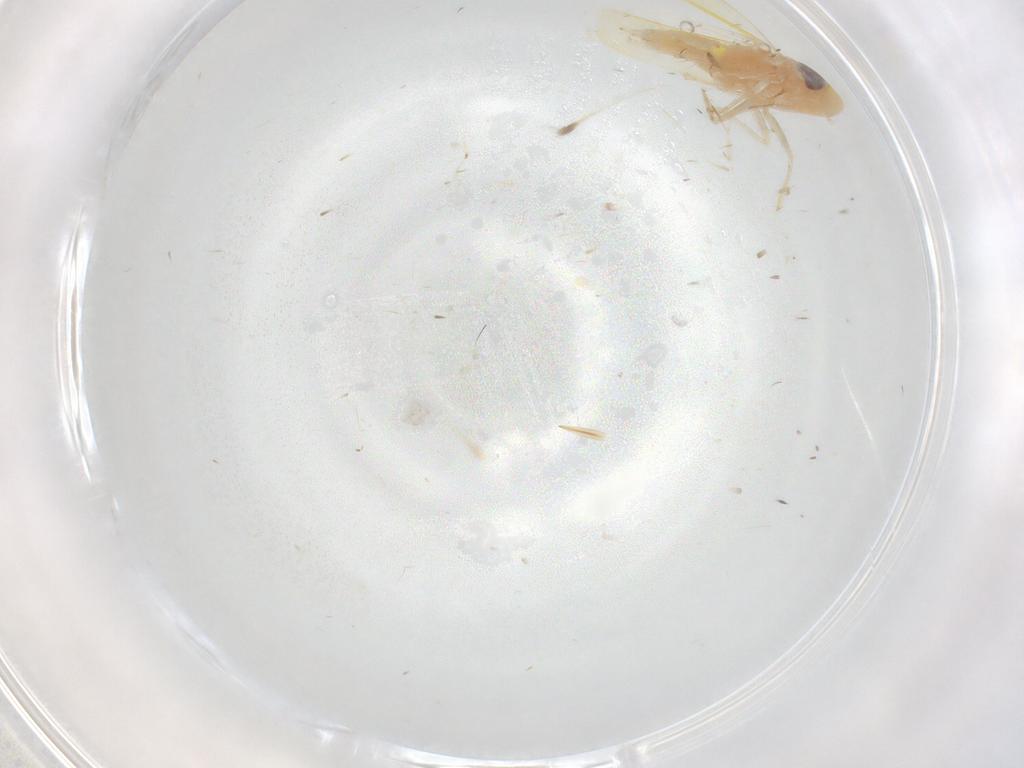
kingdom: Animalia
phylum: Arthropoda
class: Insecta
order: Hemiptera
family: Cicadellidae
